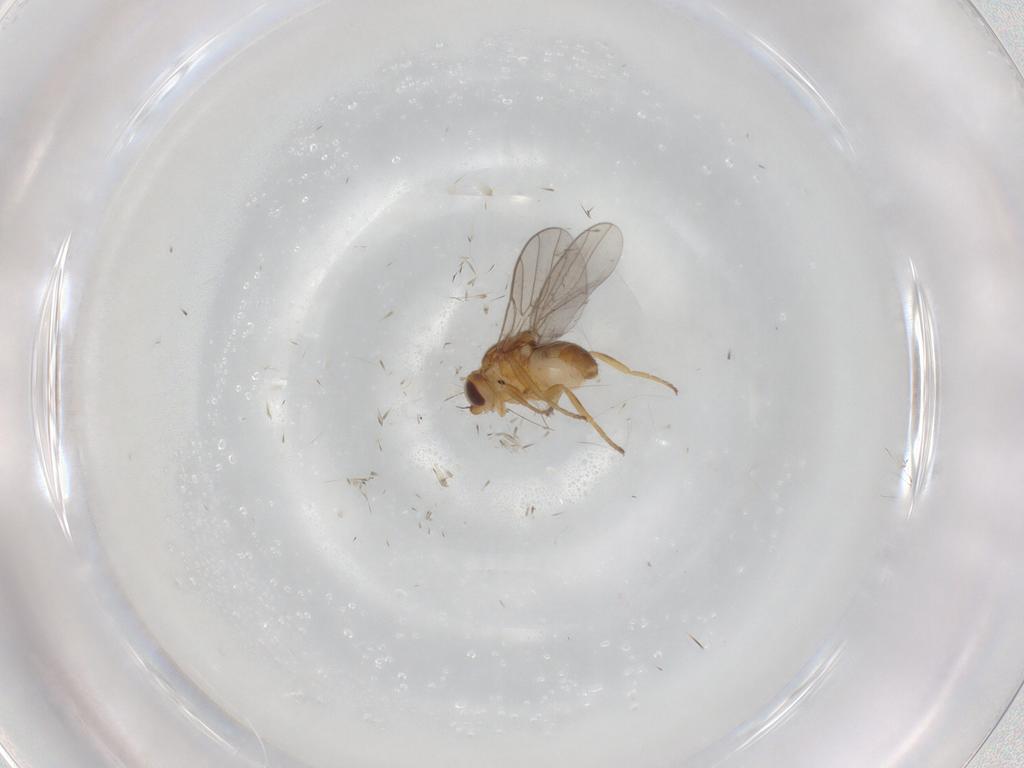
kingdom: Animalia
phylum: Arthropoda
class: Insecta
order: Diptera
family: Chloropidae
